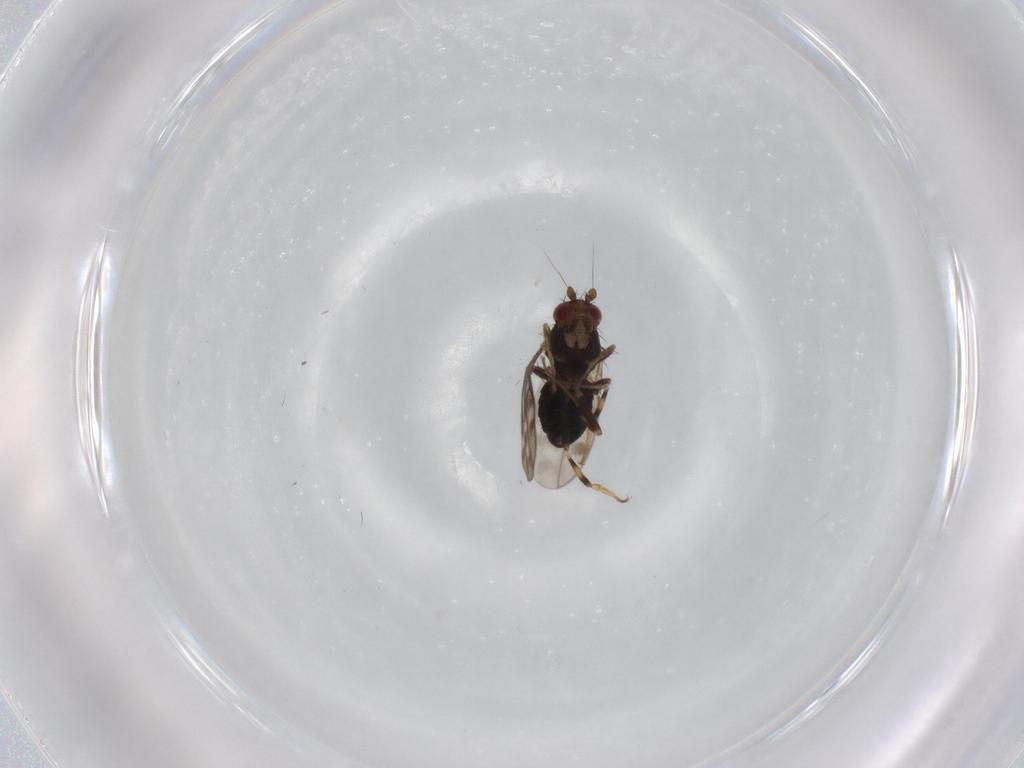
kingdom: Animalia
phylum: Arthropoda
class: Insecta
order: Diptera
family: Sphaeroceridae
